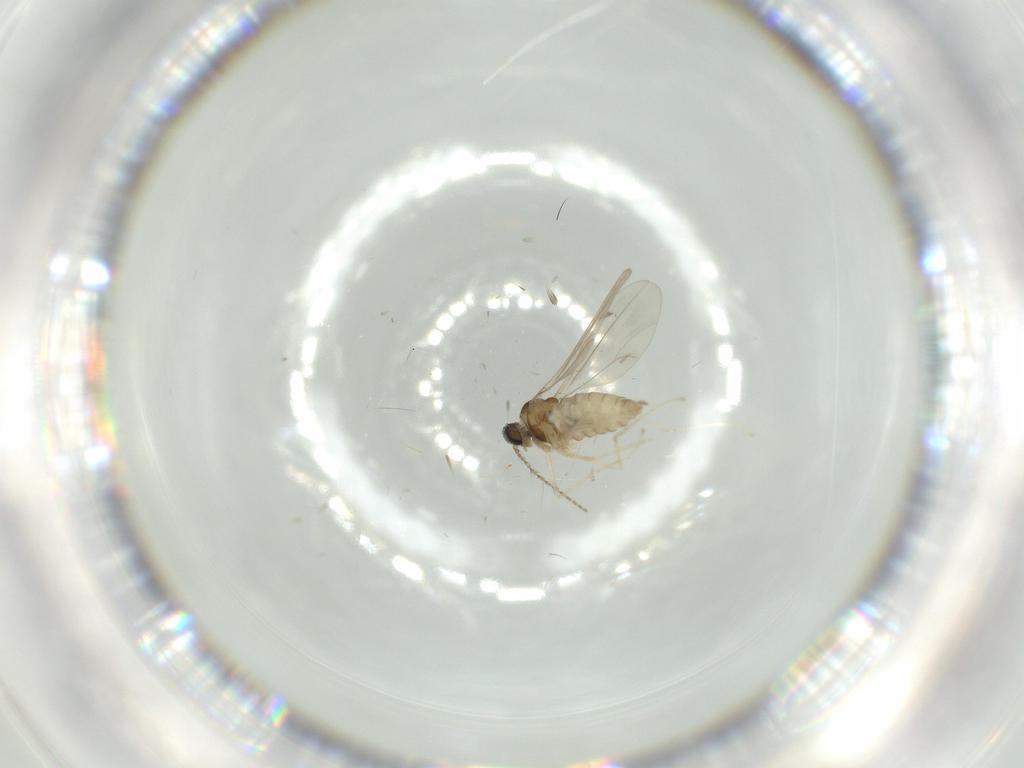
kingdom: Animalia
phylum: Arthropoda
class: Insecta
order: Diptera
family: Cecidomyiidae
